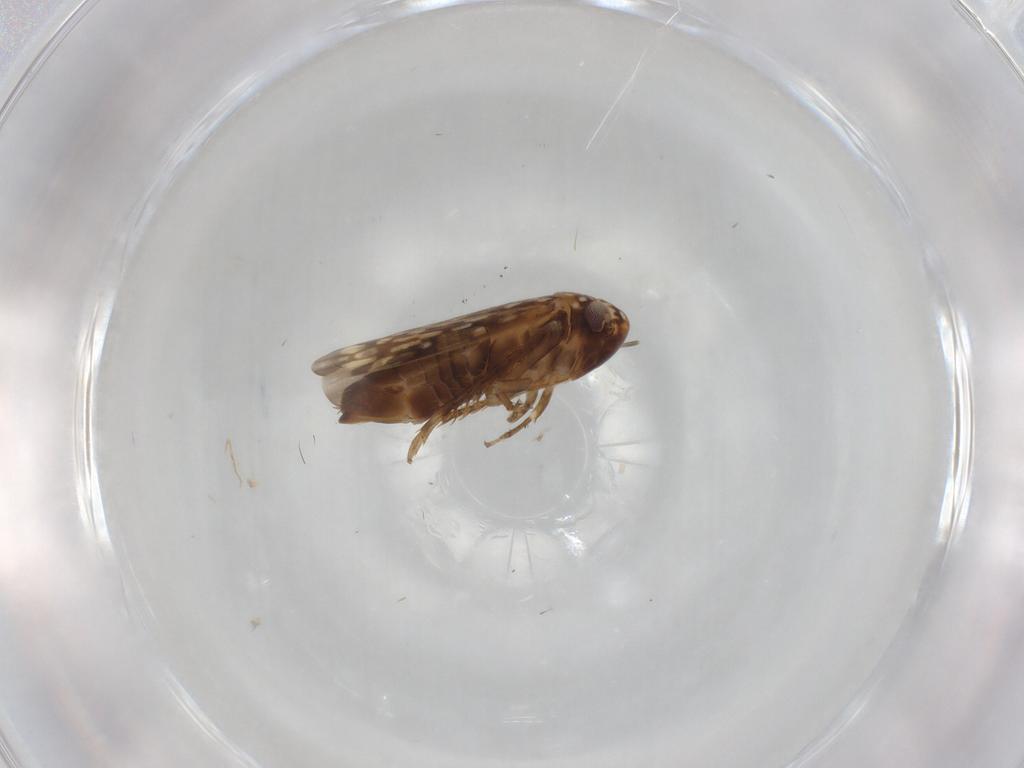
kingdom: Animalia
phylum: Arthropoda
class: Insecta
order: Hemiptera
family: Cicadellidae
